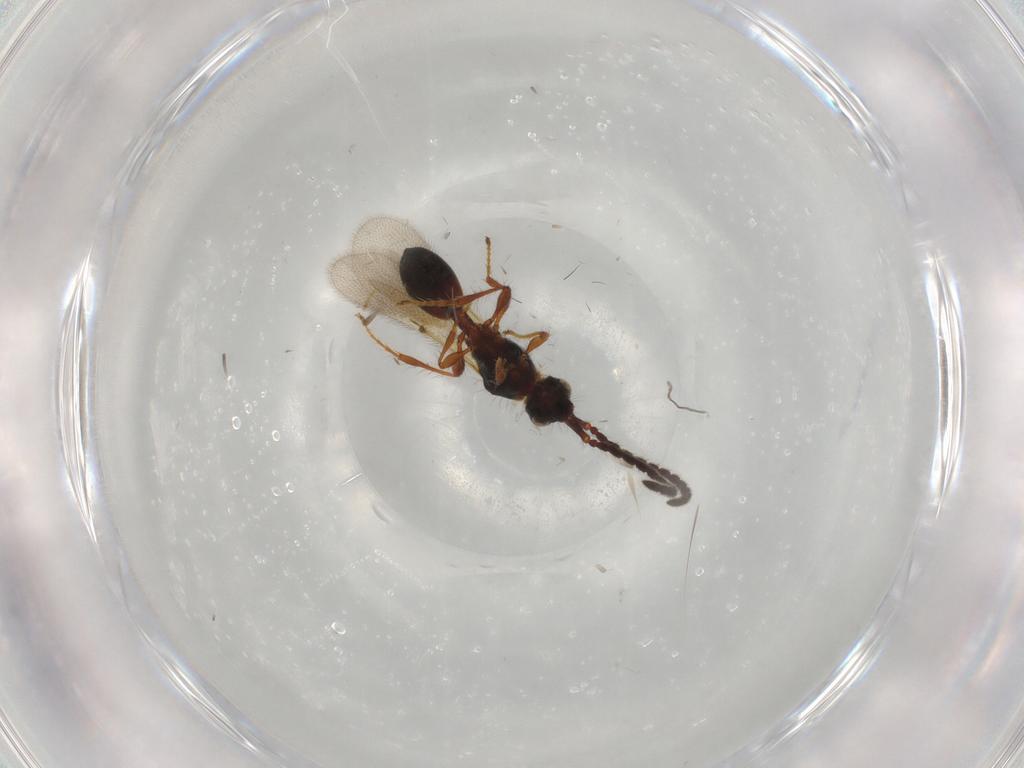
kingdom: Animalia
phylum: Arthropoda
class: Insecta
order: Hymenoptera
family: Diapriidae
